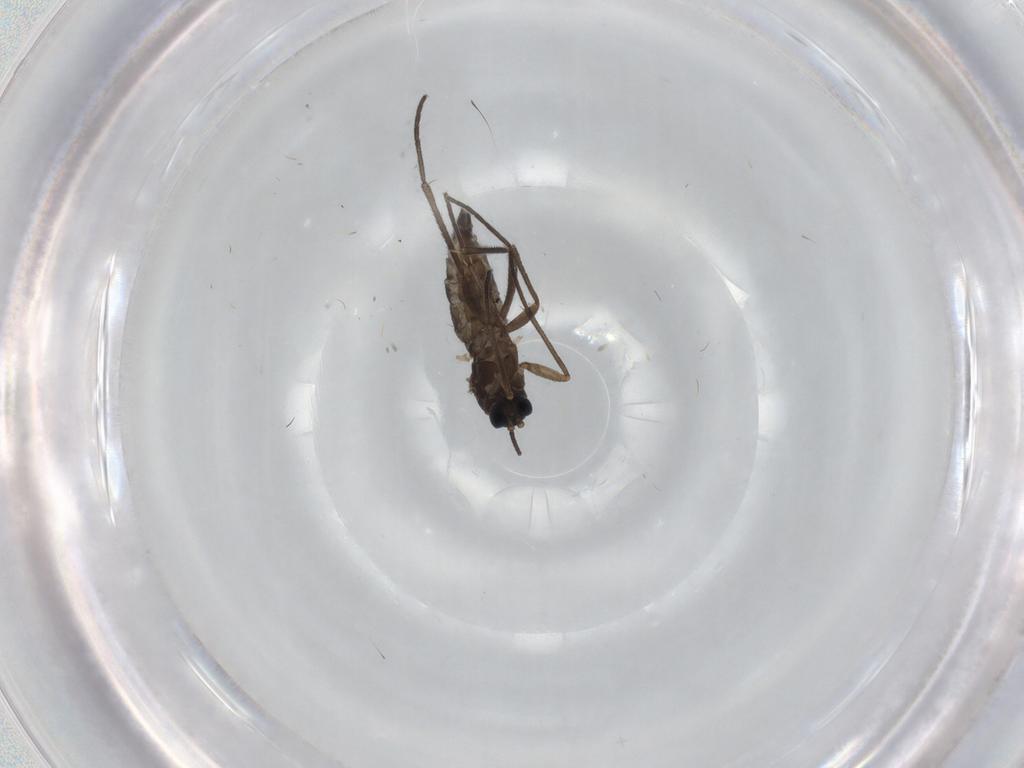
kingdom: Animalia
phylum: Arthropoda
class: Insecta
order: Diptera
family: Sciaridae
